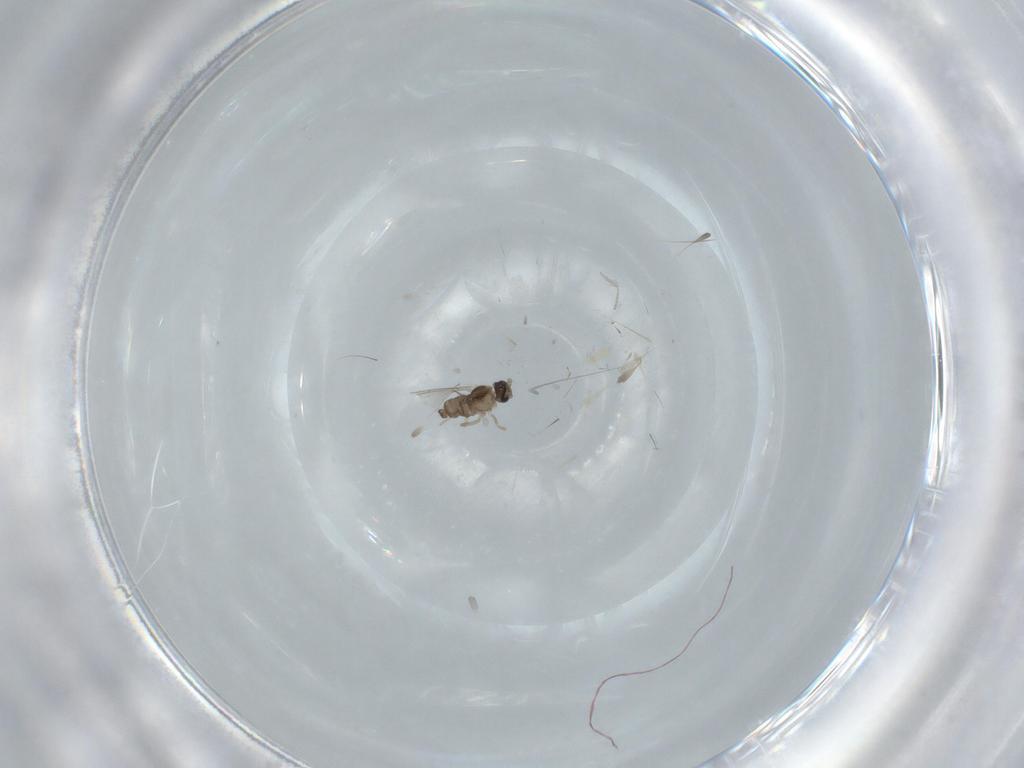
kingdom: Animalia
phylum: Arthropoda
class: Insecta
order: Diptera
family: Cecidomyiidae
